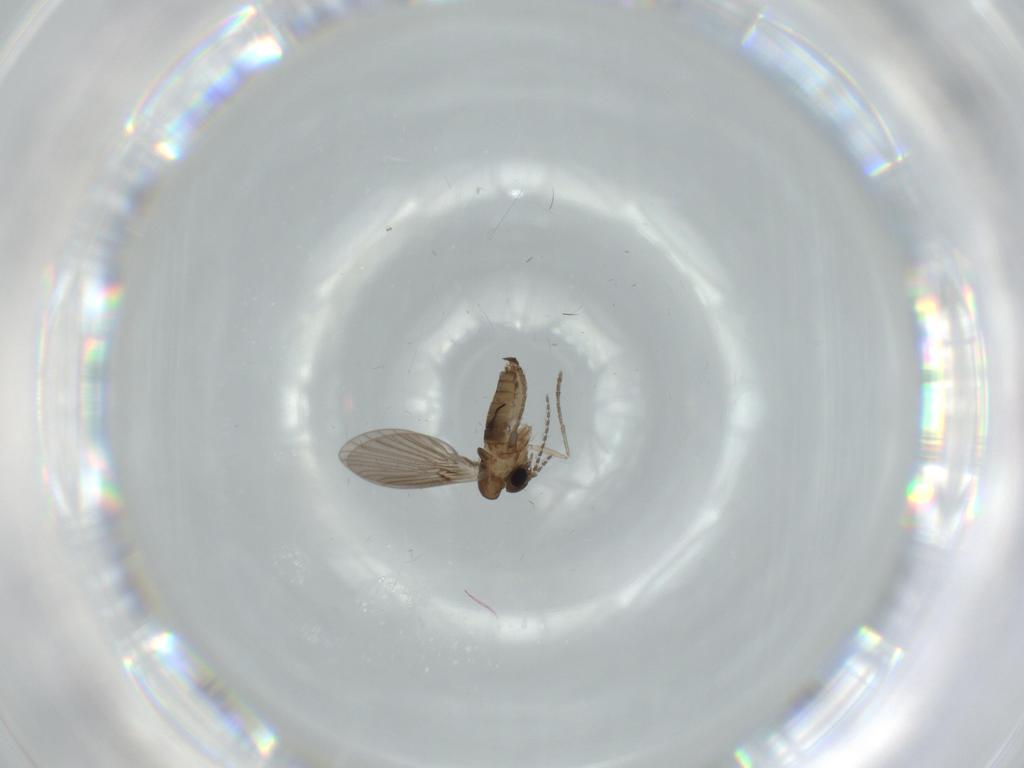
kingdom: Animalia
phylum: Arthropoda
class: Insecta
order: Diptera
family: Psychodidae
